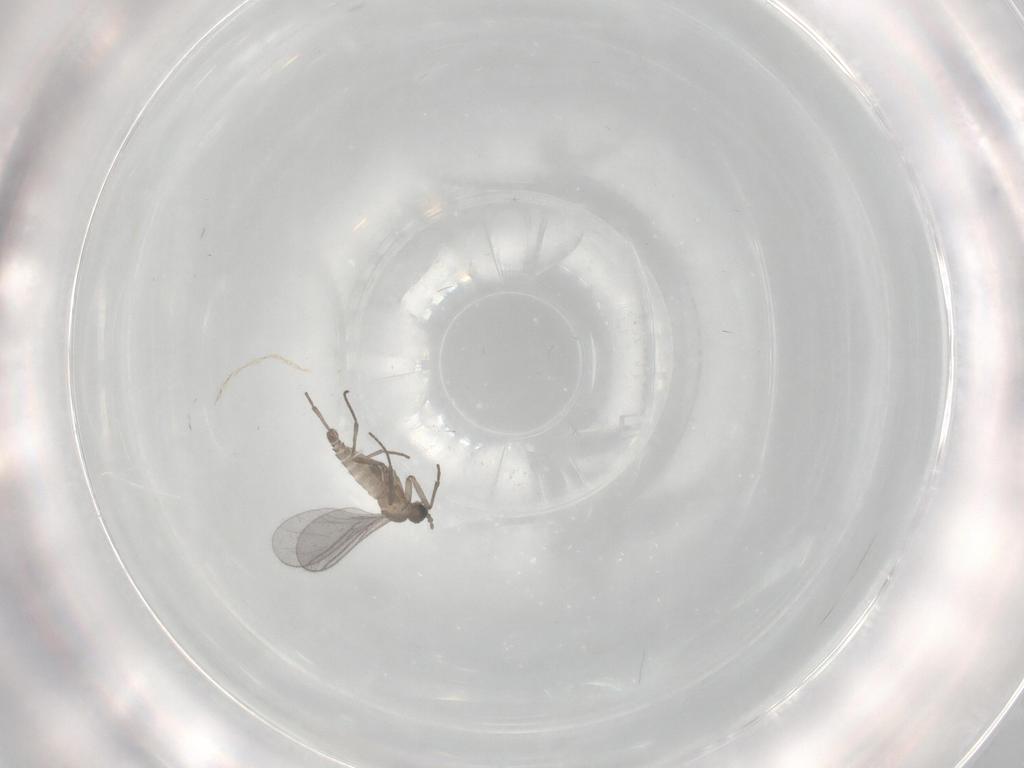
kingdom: Animalia
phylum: Arthropoda
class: Insecta
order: Diptera
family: Sciaridae
